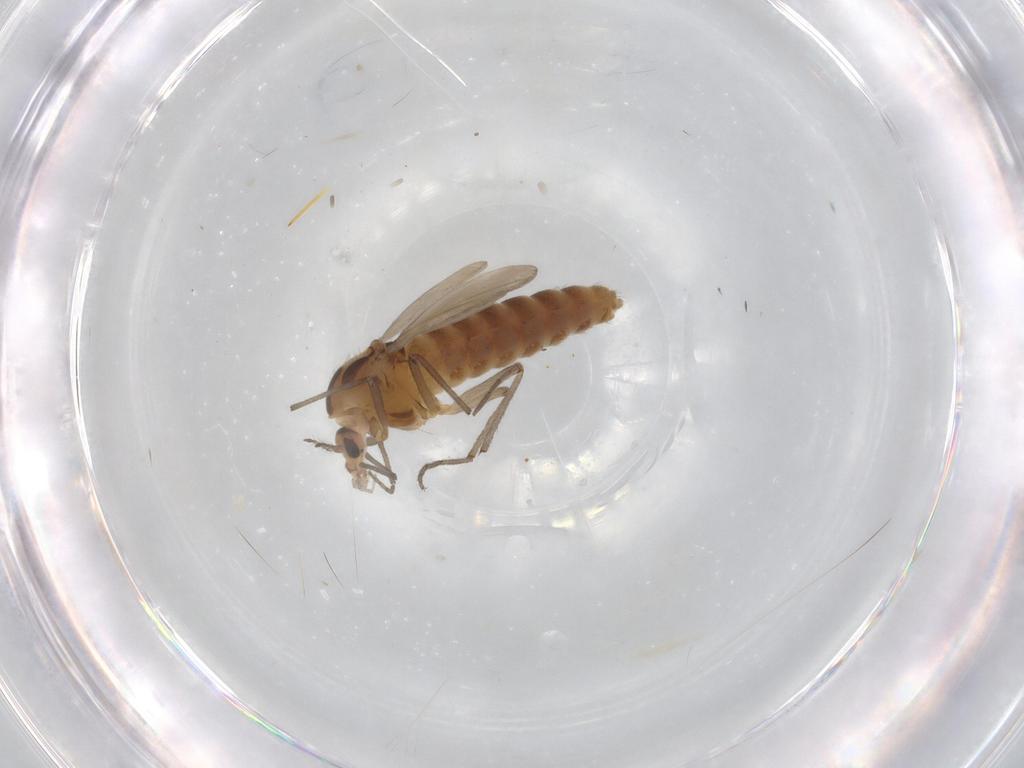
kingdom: Animalia
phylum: Arthropoda
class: Insecta
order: Diptera
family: Chironomidae
